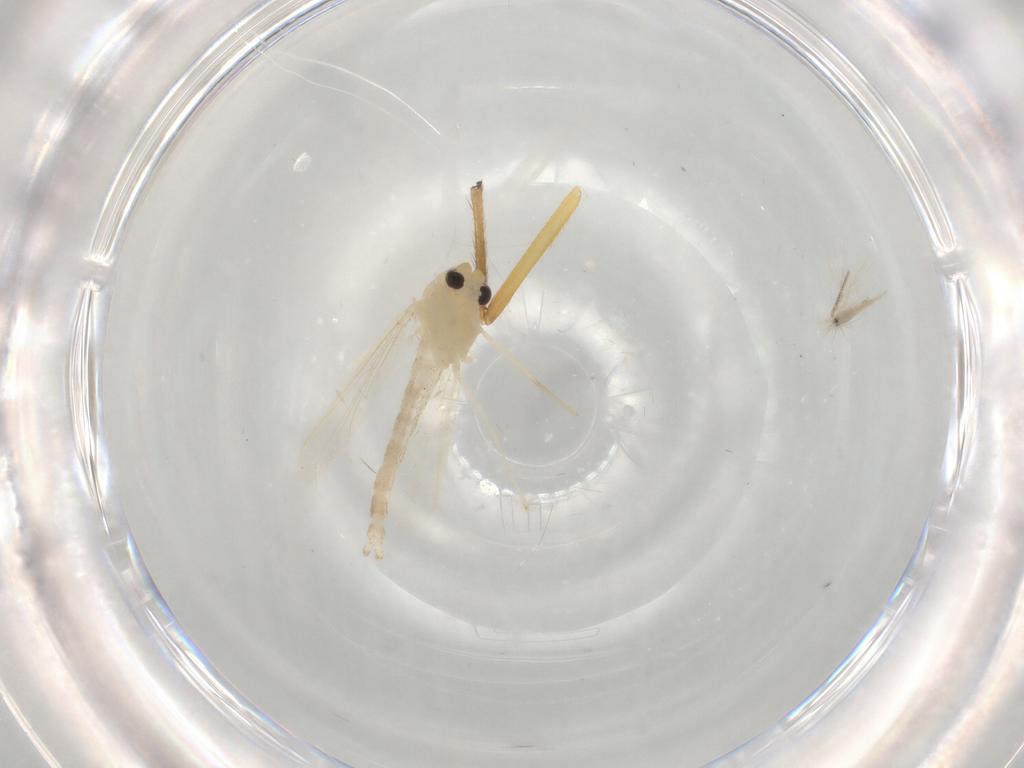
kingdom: Animalia
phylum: Arthropoda
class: Insecta
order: Diptera
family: Chironomidae
